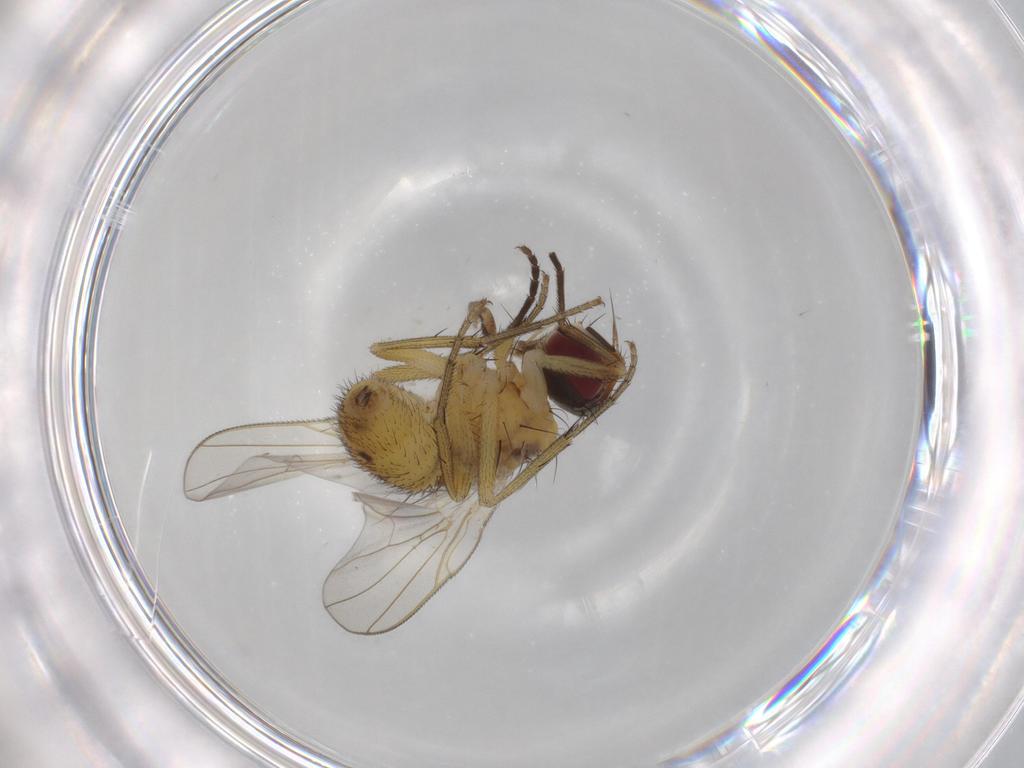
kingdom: Animalia
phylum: Arthropoda
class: Insecta
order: Diptera
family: Muscidae
